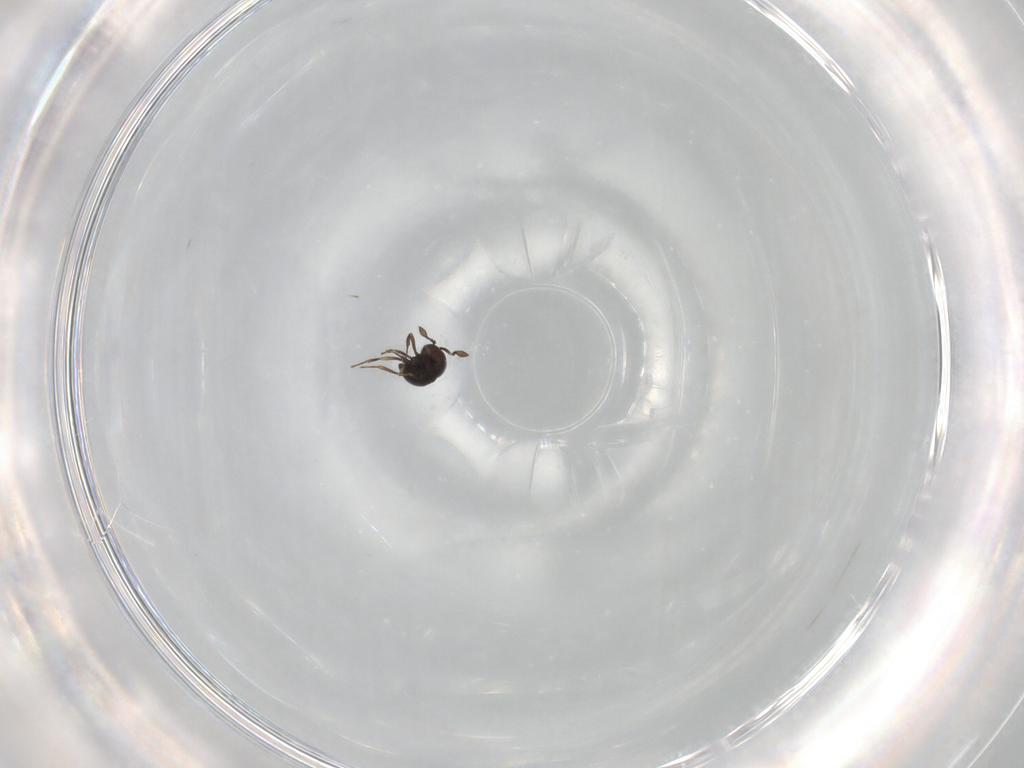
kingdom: Animalia
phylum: Arthropoda
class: Insecta
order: Hymenoptera
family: Scelionidae
